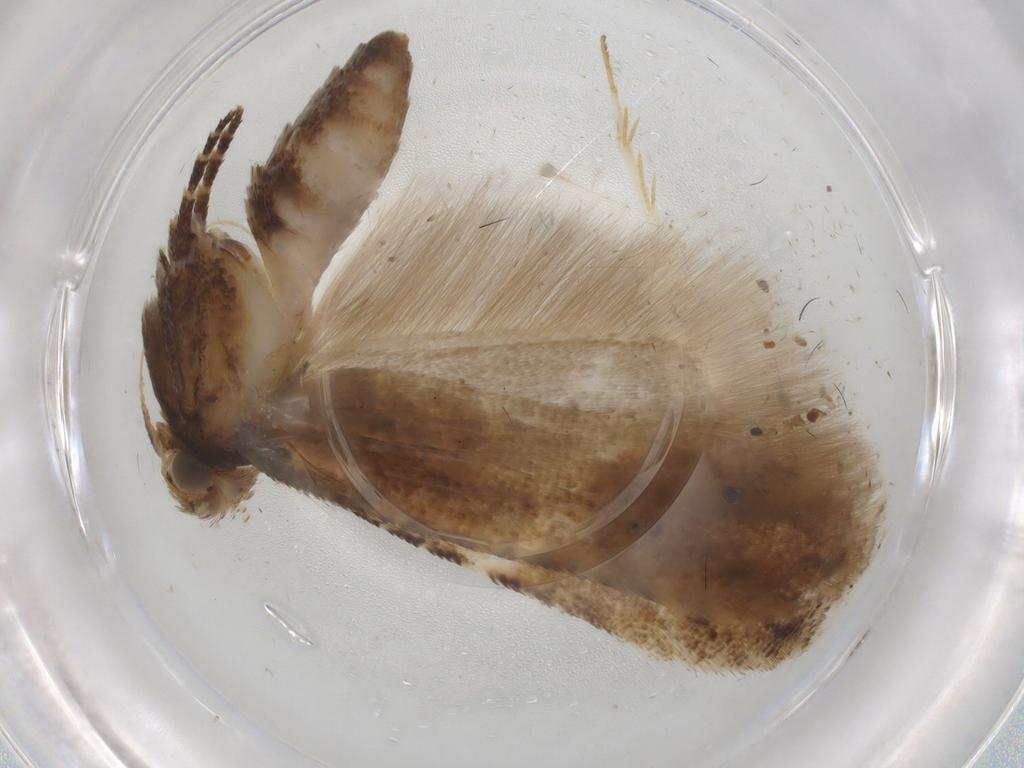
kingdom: Animalia
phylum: Arthropoda
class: Insecta
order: Lepidoptera
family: Gelechiidae
